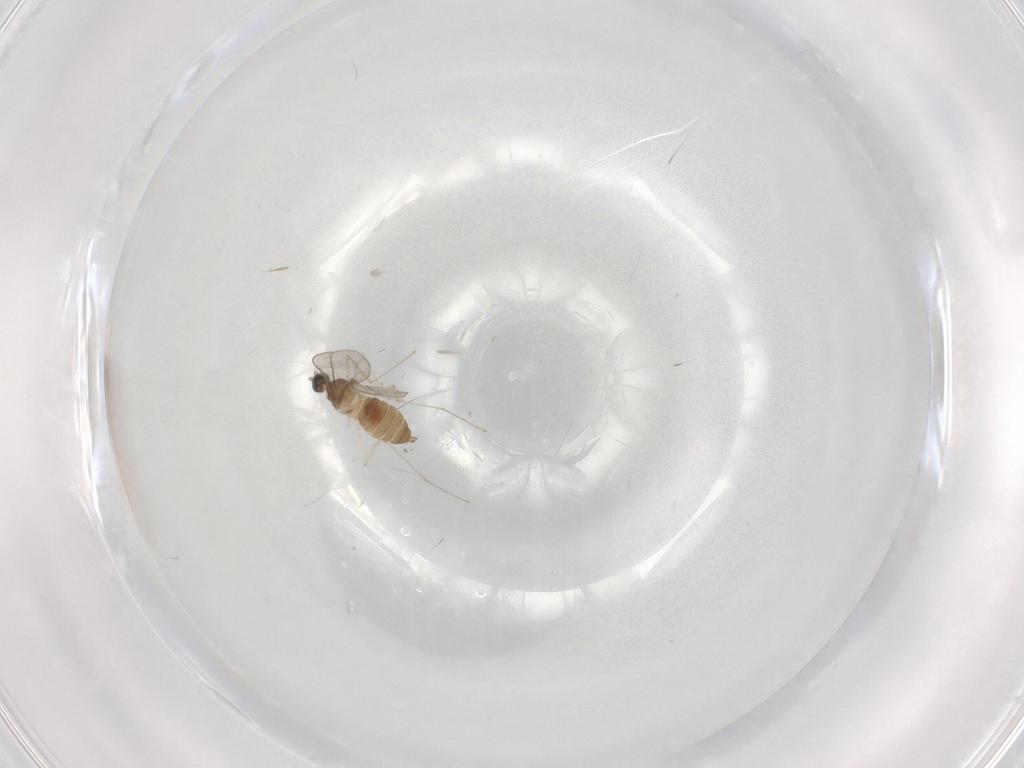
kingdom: Animalia
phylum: Arthropoda
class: Insecta
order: Diptera
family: Cecidomyiidae
